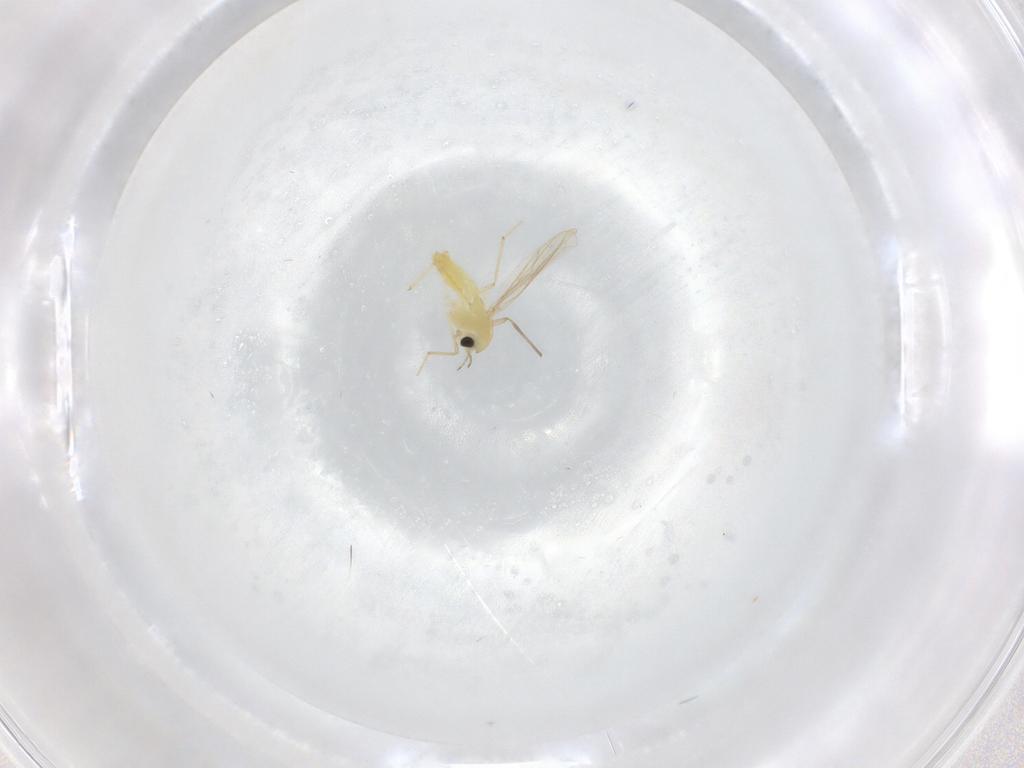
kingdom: Animalia
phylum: Arthropoda
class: Insecta
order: Diptera
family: Chironomidae
